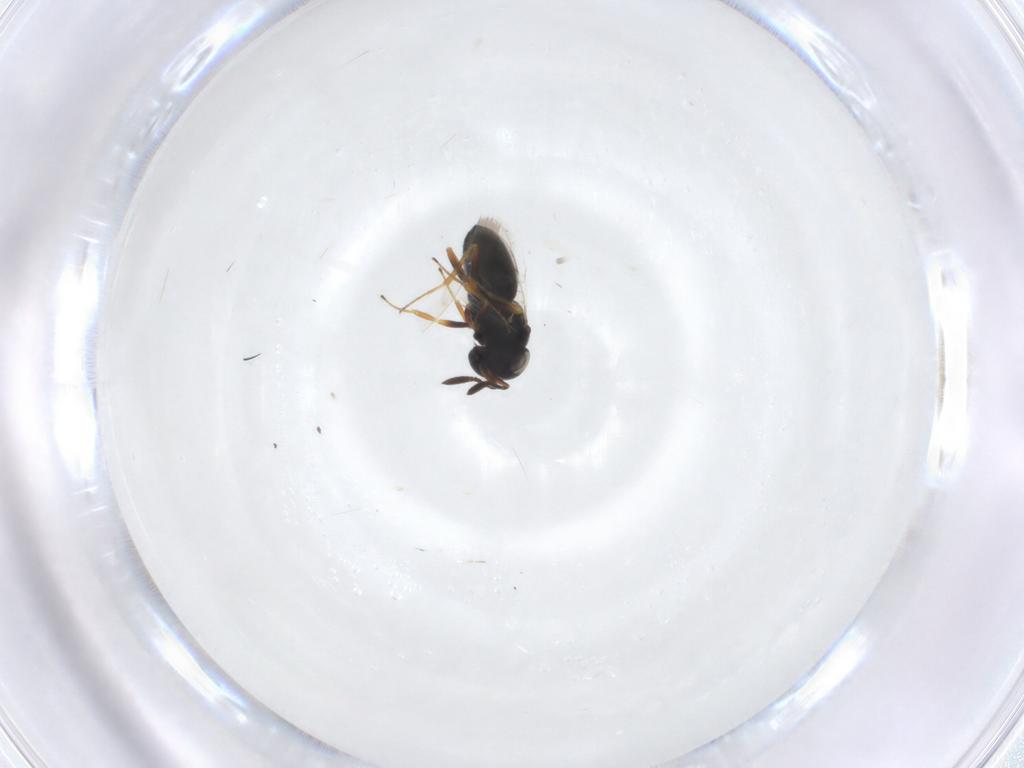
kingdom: Animalia
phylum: Arthropoda
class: Insecta
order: Hymenoptera
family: Scelionidae
